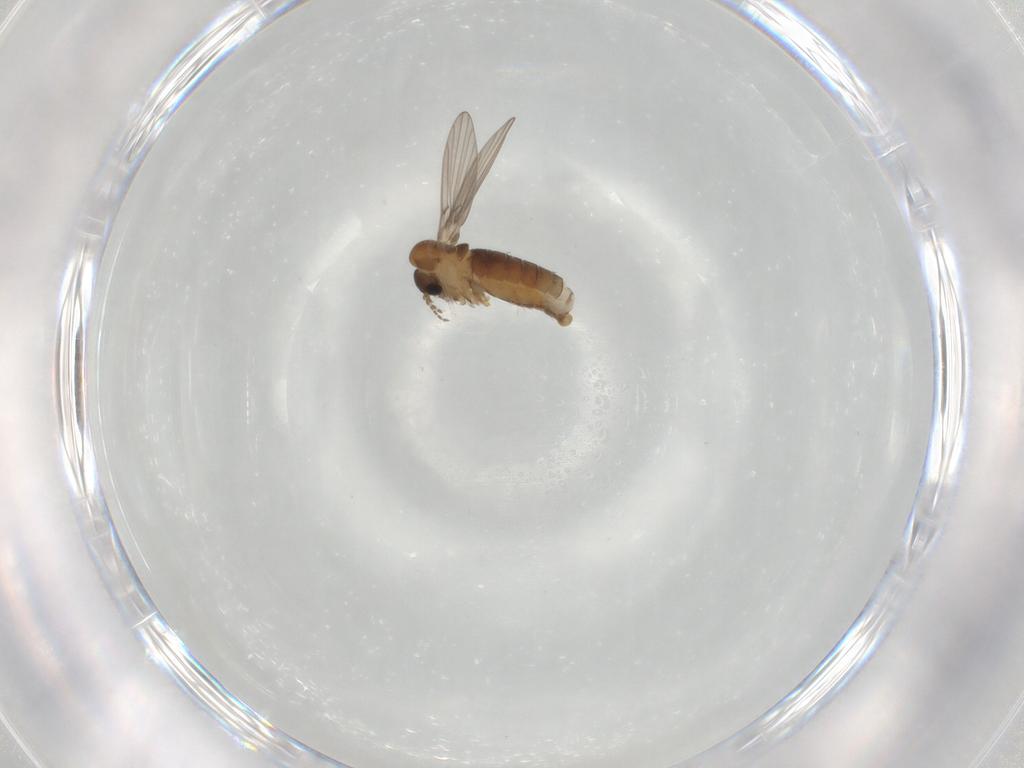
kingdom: Animalia
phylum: Arthropoda
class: Insecta
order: Diptera
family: Psychodidae
